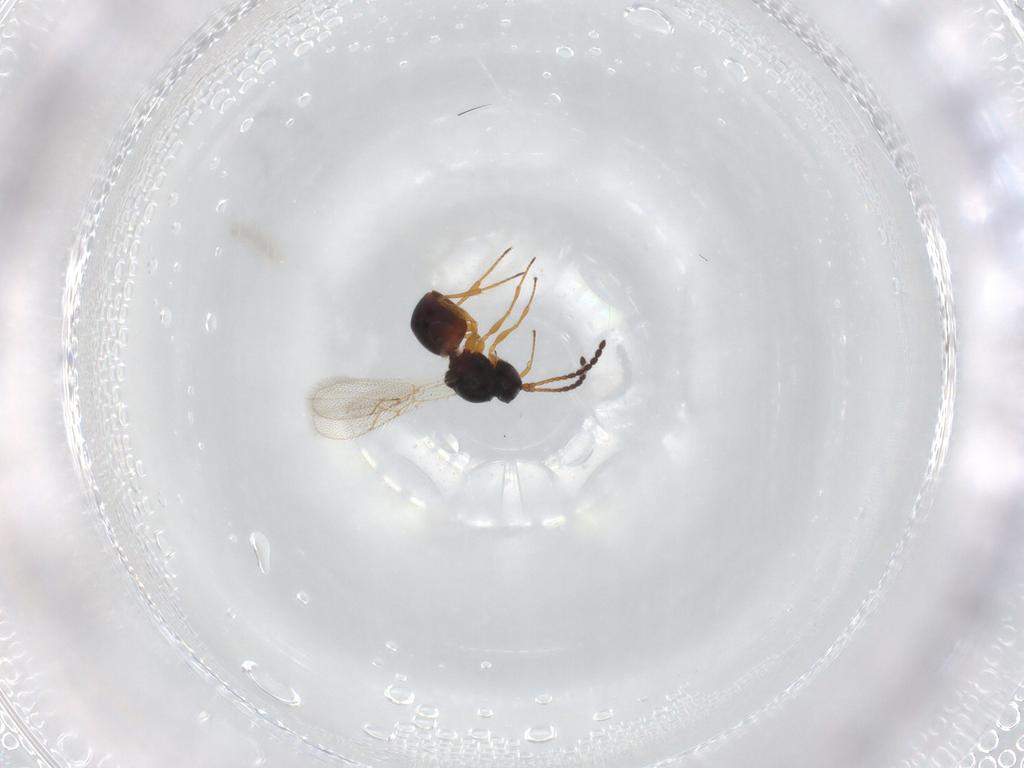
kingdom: Animalia
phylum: Arthropoda
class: Insecta
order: Hymenoptera
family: Figitidae
